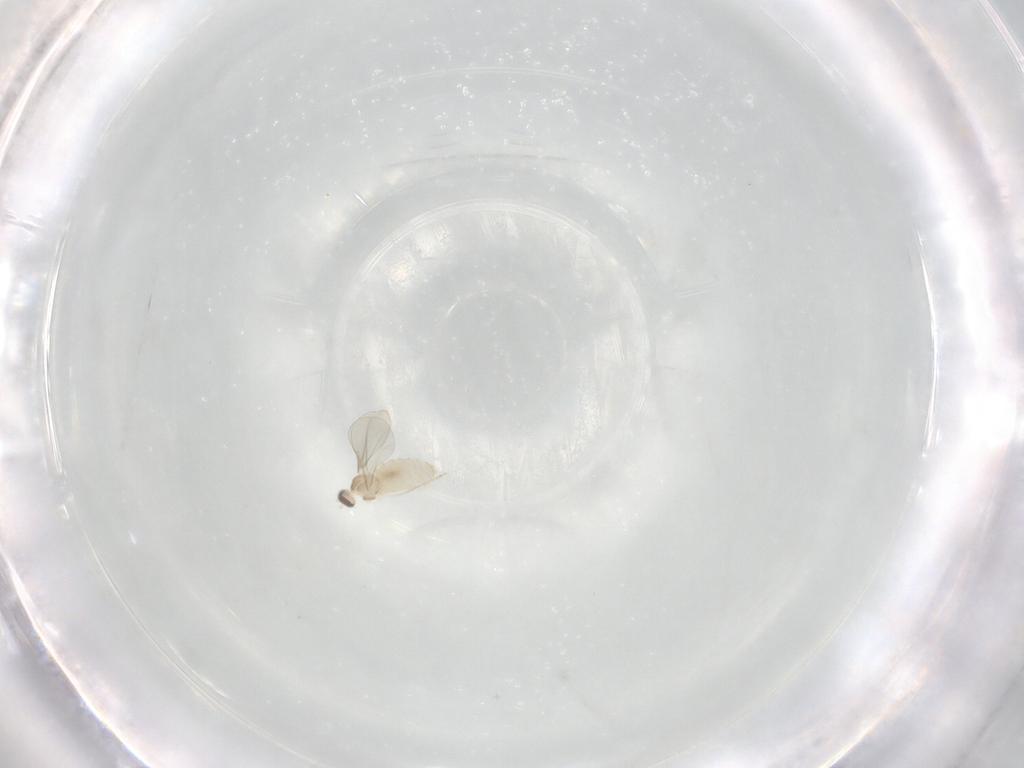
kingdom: Animalia
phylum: Arthropoda
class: Insecta
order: Diptera
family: Cecidomyiidae
